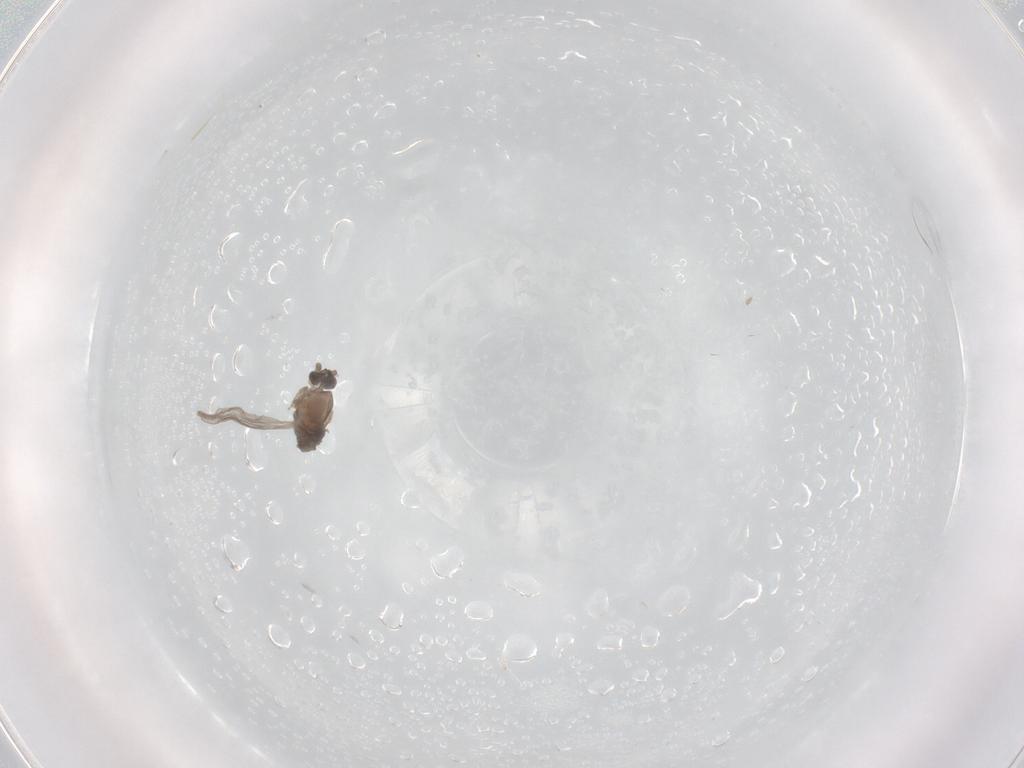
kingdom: Animalia
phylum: Arthropoda
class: Insecta
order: Diptera
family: Cecidomyiidae
